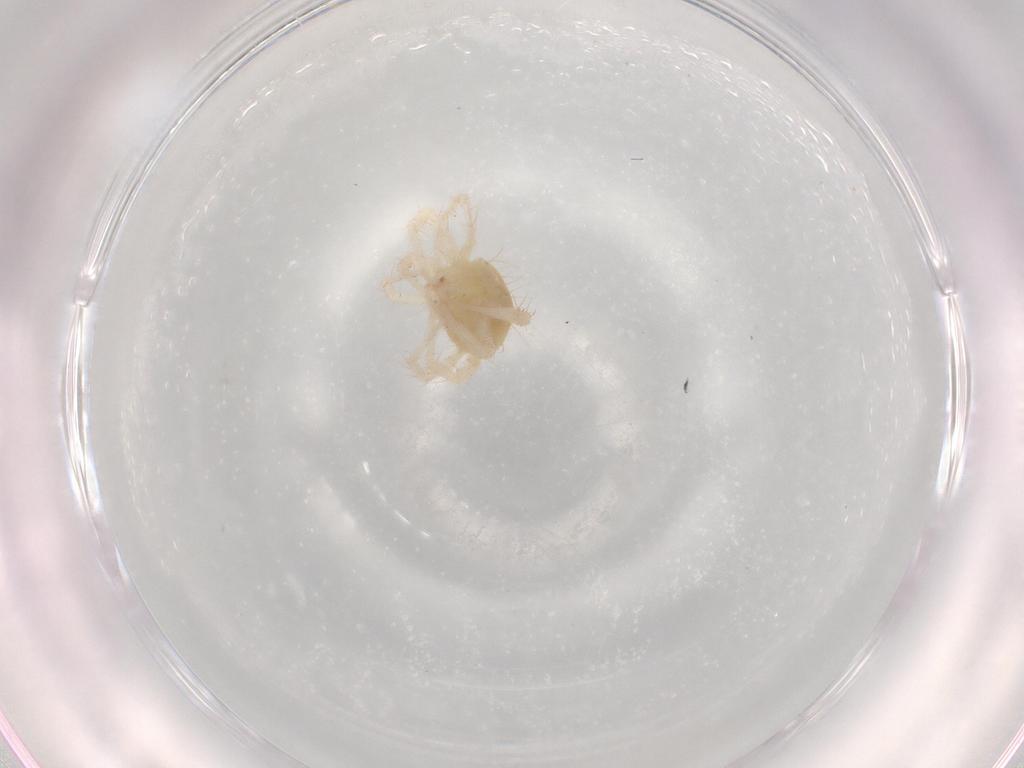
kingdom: Animalia
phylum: Arthropoda
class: Arachnida
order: Trombidiformes
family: Anystidae
